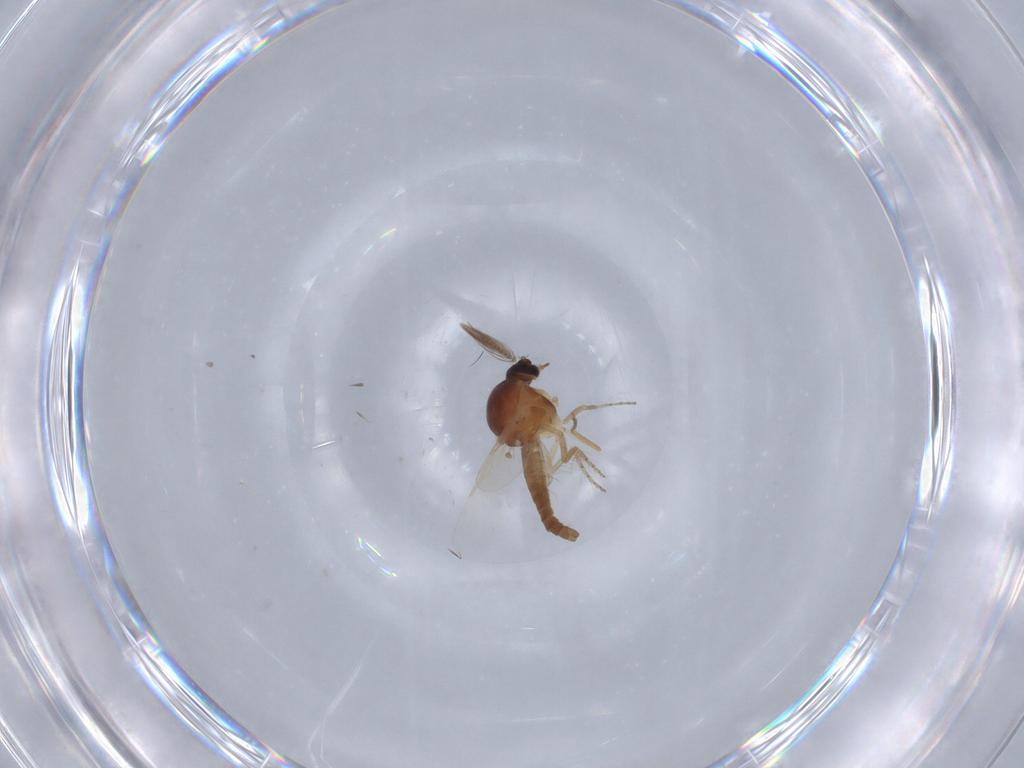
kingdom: Animalia
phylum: Arthropoda
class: Insecta
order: Diptera
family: Ceratopogonidae
